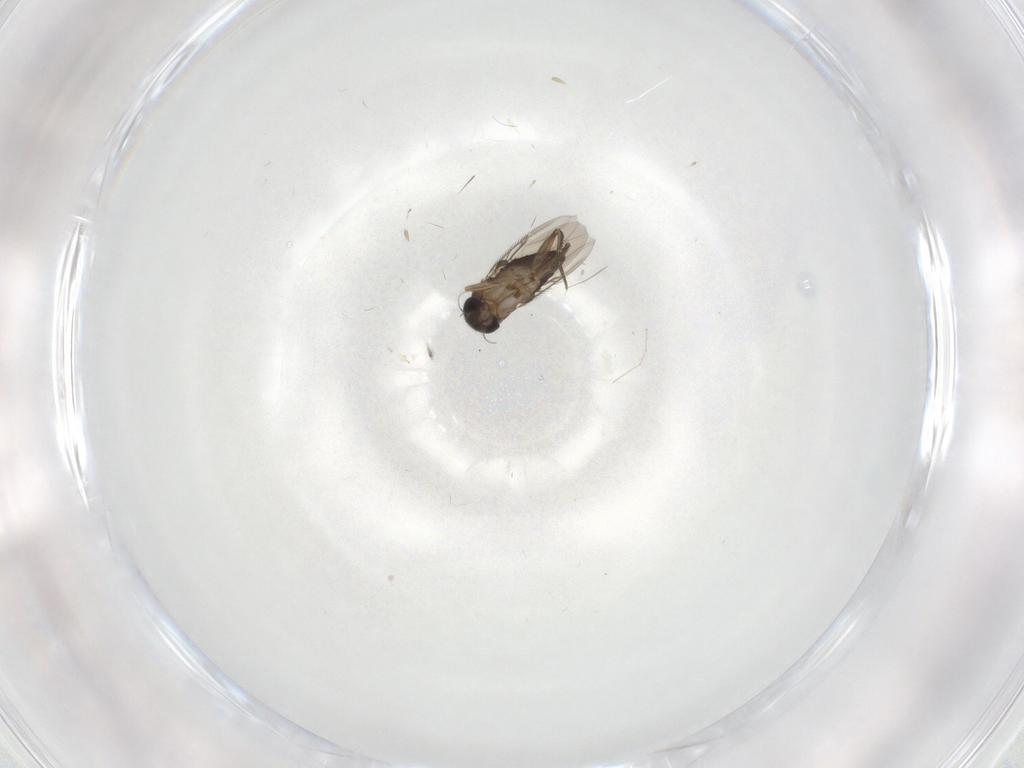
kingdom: Animalia
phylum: Arthropoda
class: Insecta
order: Diptera
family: Phoridae
